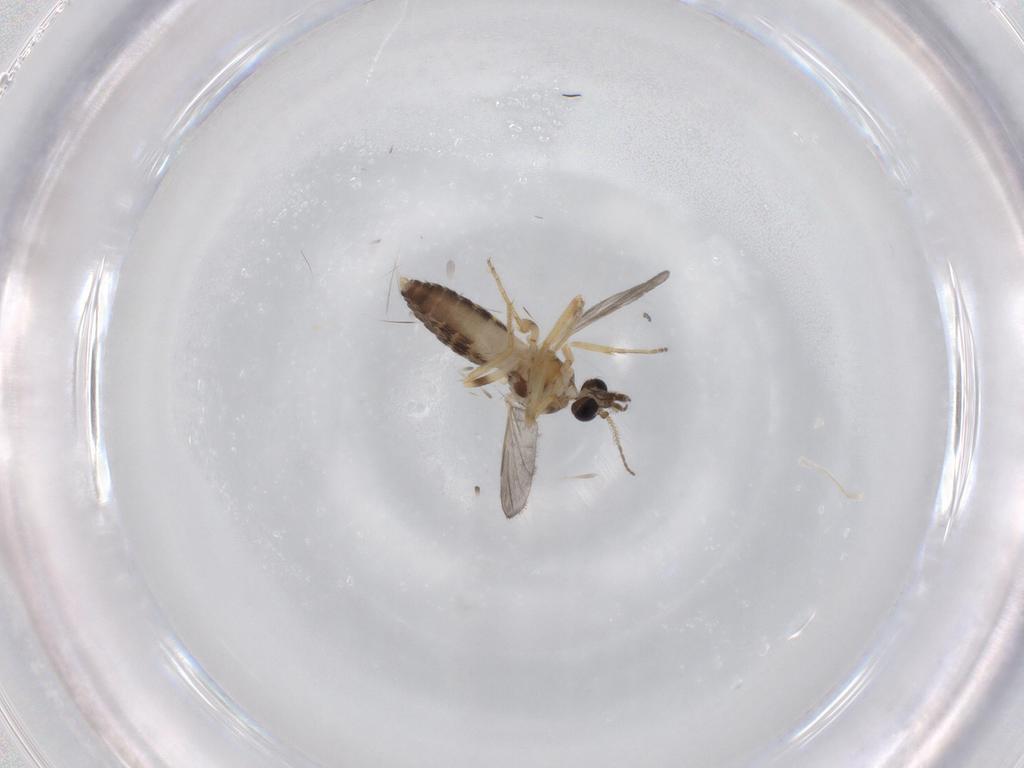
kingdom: Animalia
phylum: Arthropoda
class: Insecta
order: Diptera
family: Ceratopogonidae
